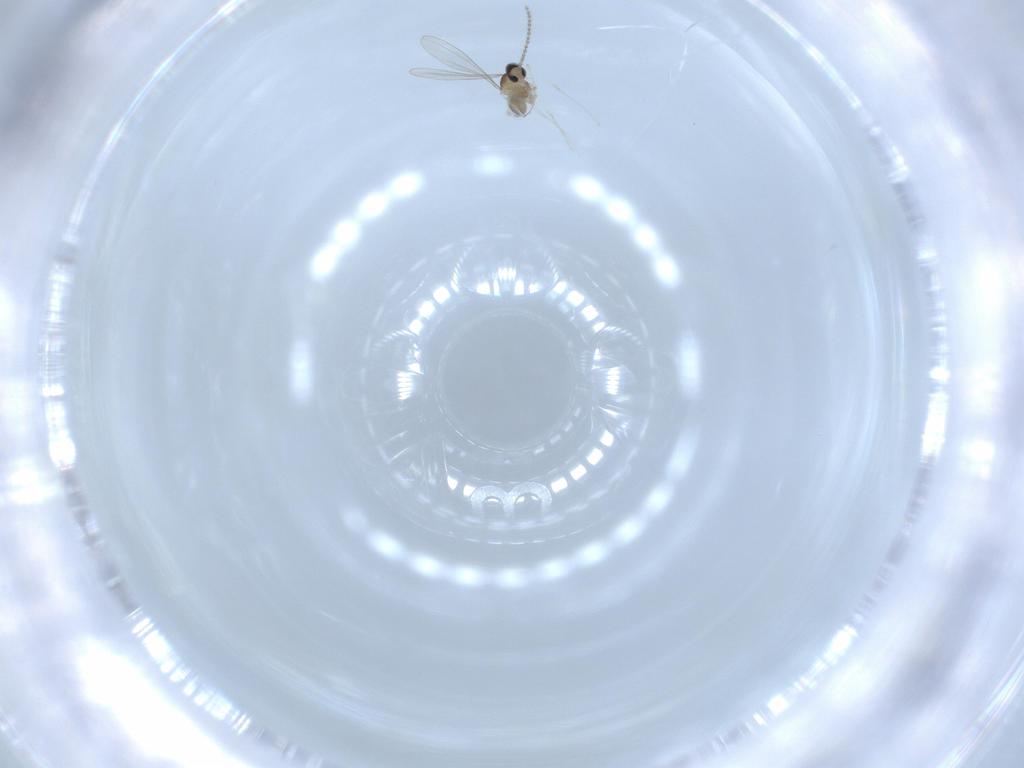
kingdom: Animalia
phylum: Arthropoda
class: Insecta
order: Diptera
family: Cecidomyiidae
